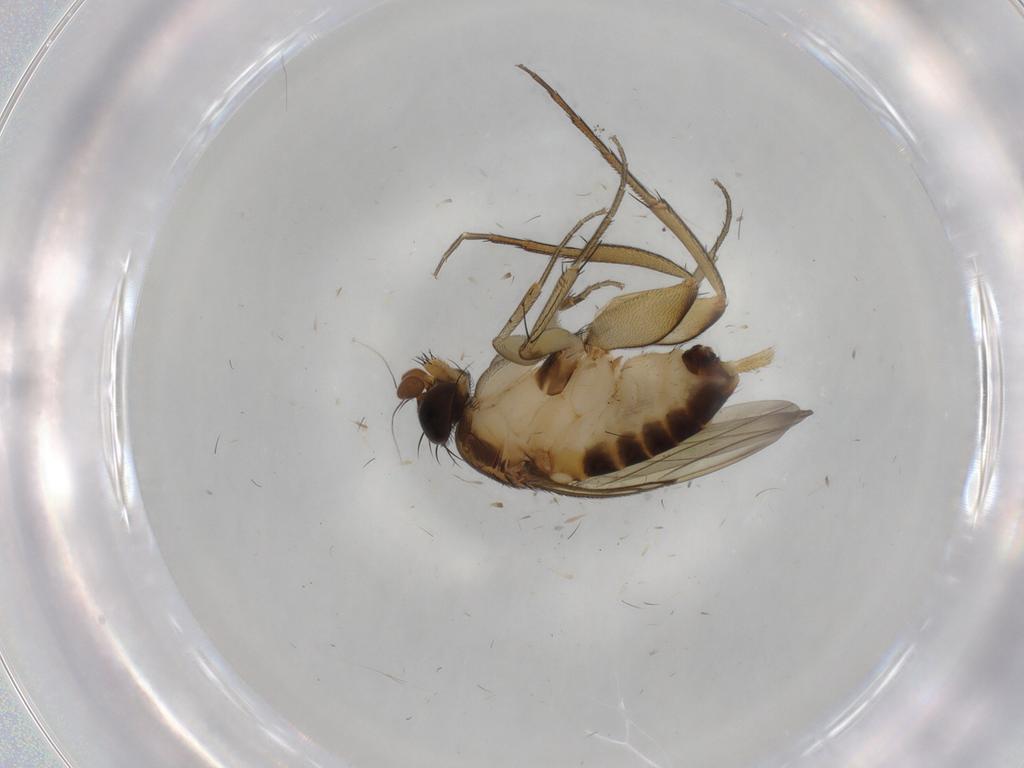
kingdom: Animalia
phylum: Arthropoda
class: Insecta
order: Diptera
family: Phoridae
